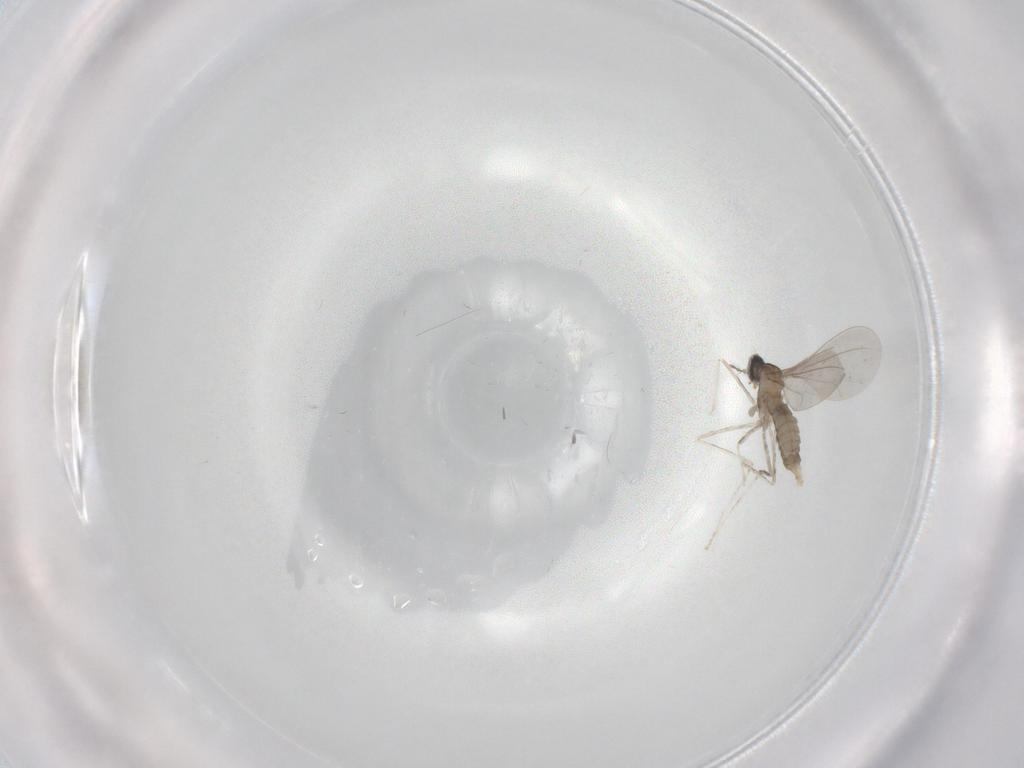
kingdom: Animalia
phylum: Arthropoda
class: Insecta
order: Diptera
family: Cecidomyiidae
